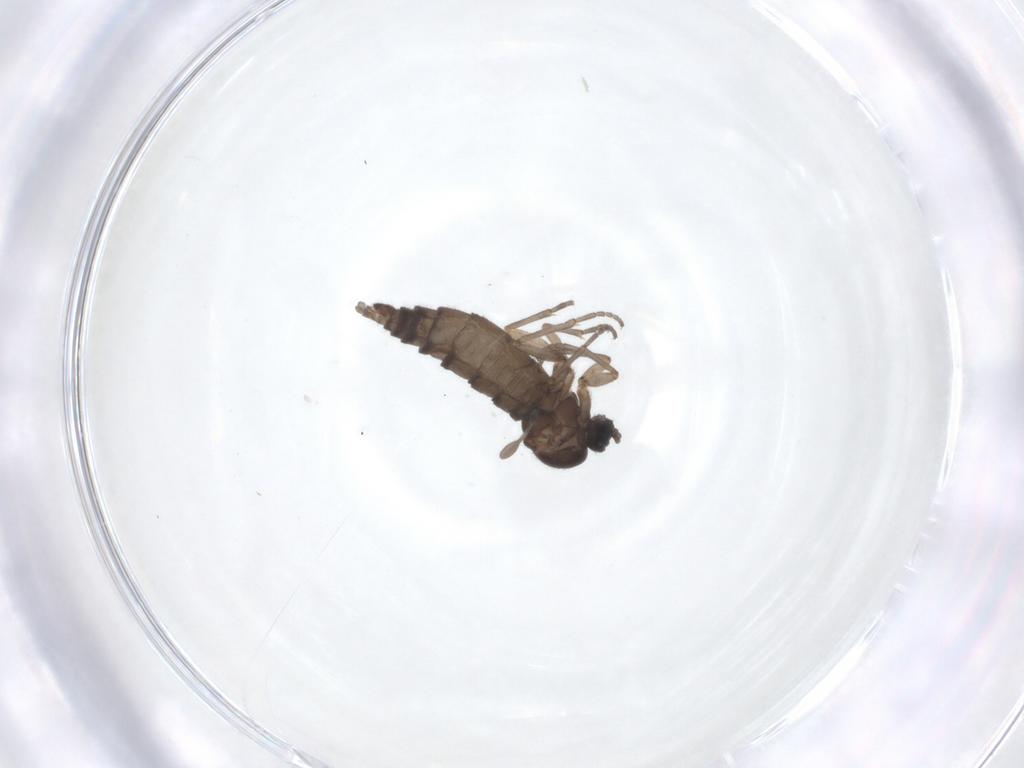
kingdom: Animalia
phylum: Arthropoda
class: Insecta
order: Diptera
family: Sciaridae
